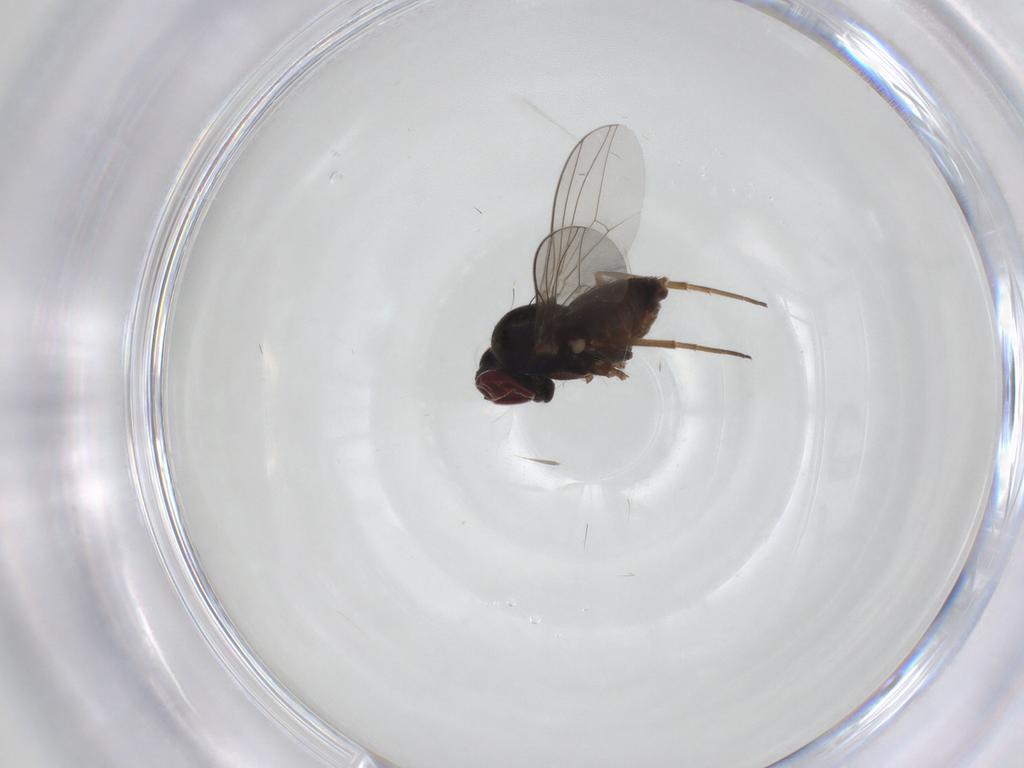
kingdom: Animalia
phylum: Arthropoda
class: Insecta
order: Diptera
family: Dolichopodidae
